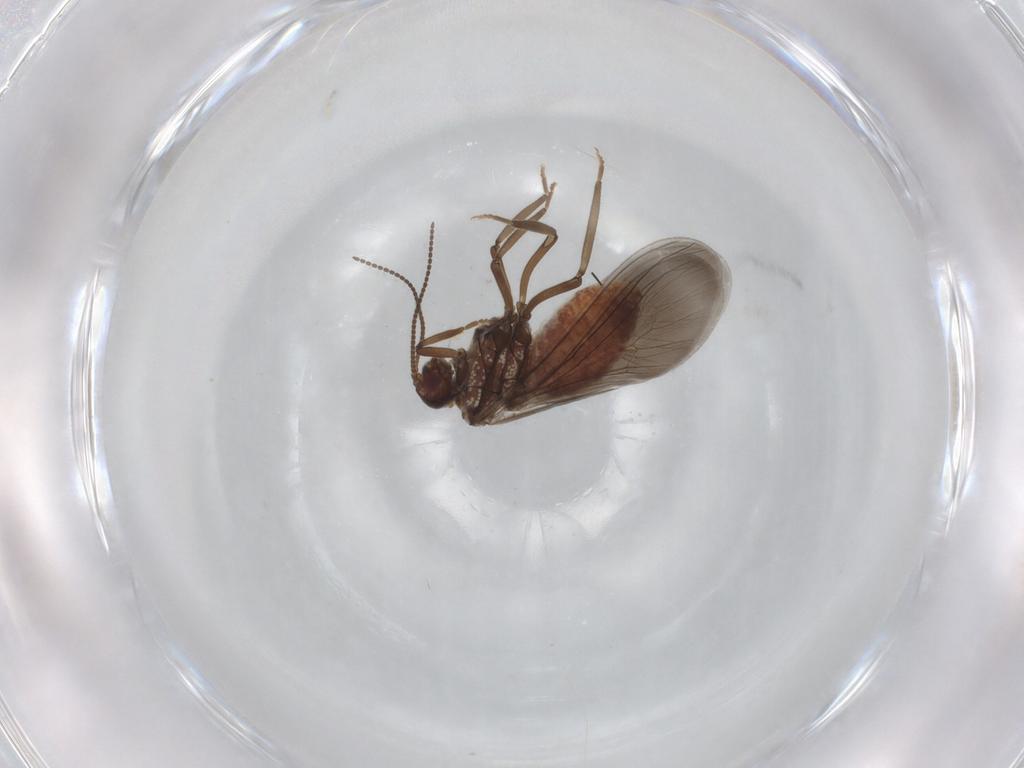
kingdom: Animalia
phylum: Arthropoda
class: Insecta
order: Neuroptera
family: Coniopterygidae
